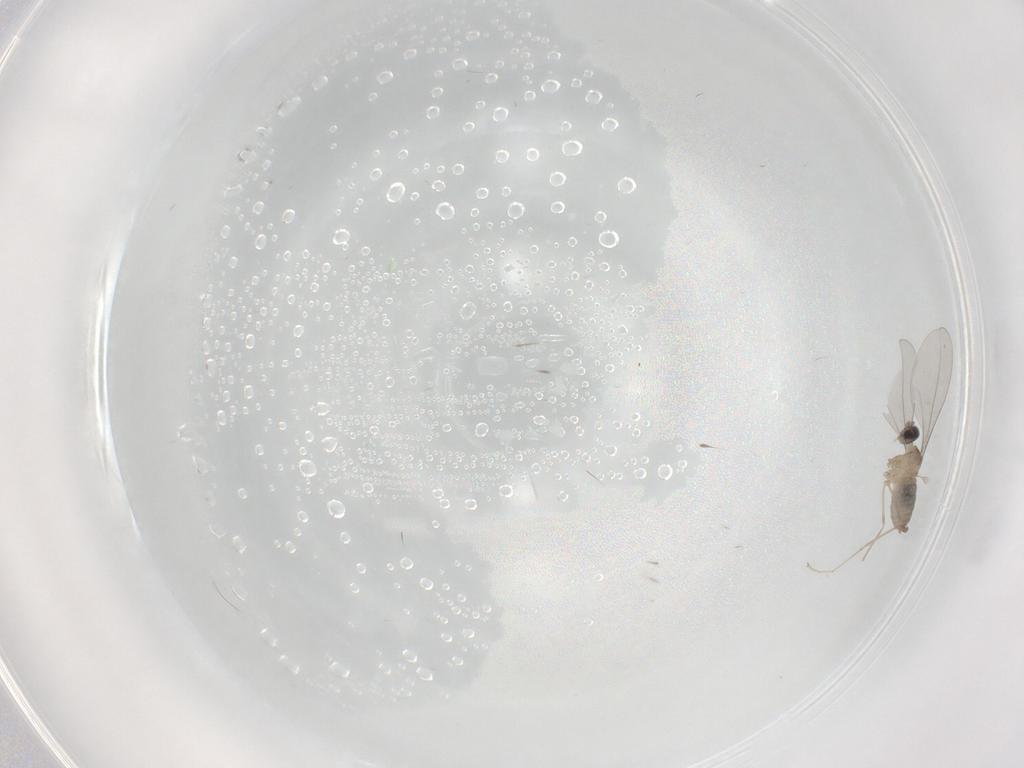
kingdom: Animalia
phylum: Arthropoda
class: Insecta
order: Diptera
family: Cecidomyiidae
